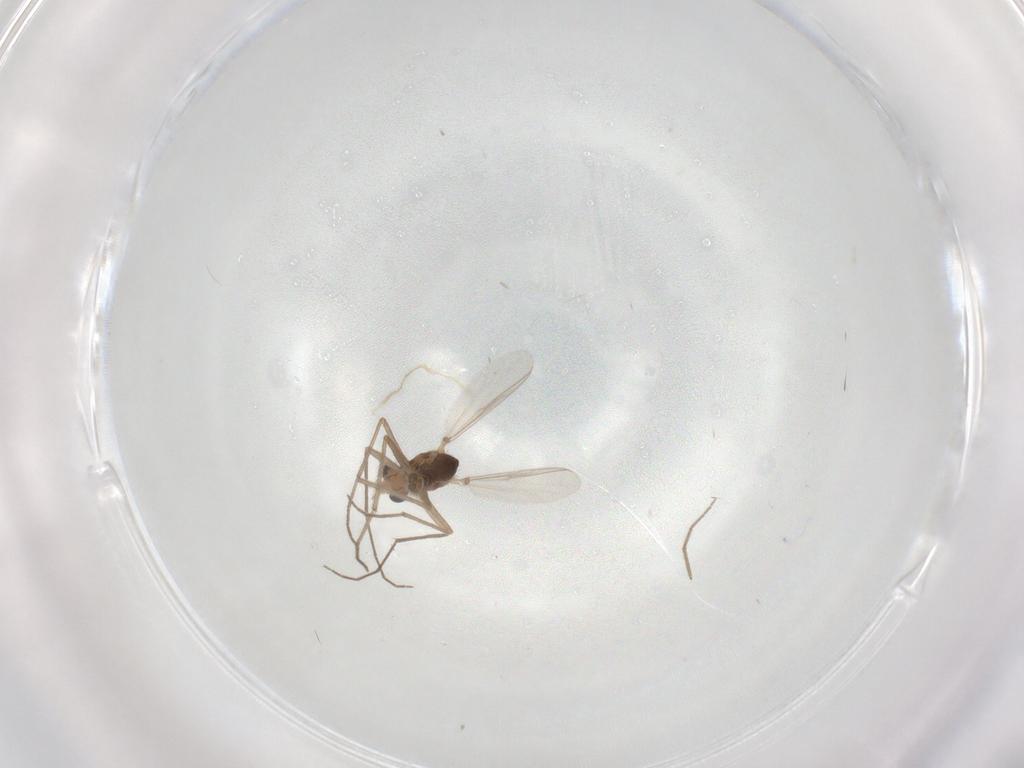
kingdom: Animalia
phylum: Arthropoda
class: Insecta
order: Diptera
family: Chironomidae
